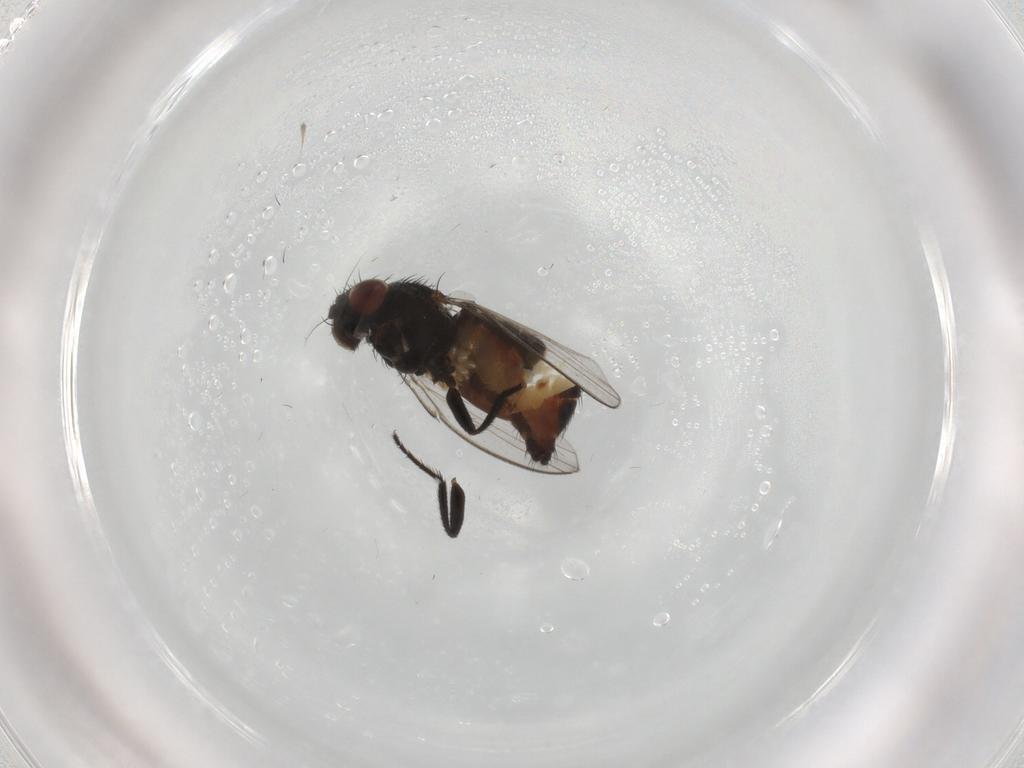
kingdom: Animalia
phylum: Arthropoda
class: Insecta
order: Diptera
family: Milichiidae
